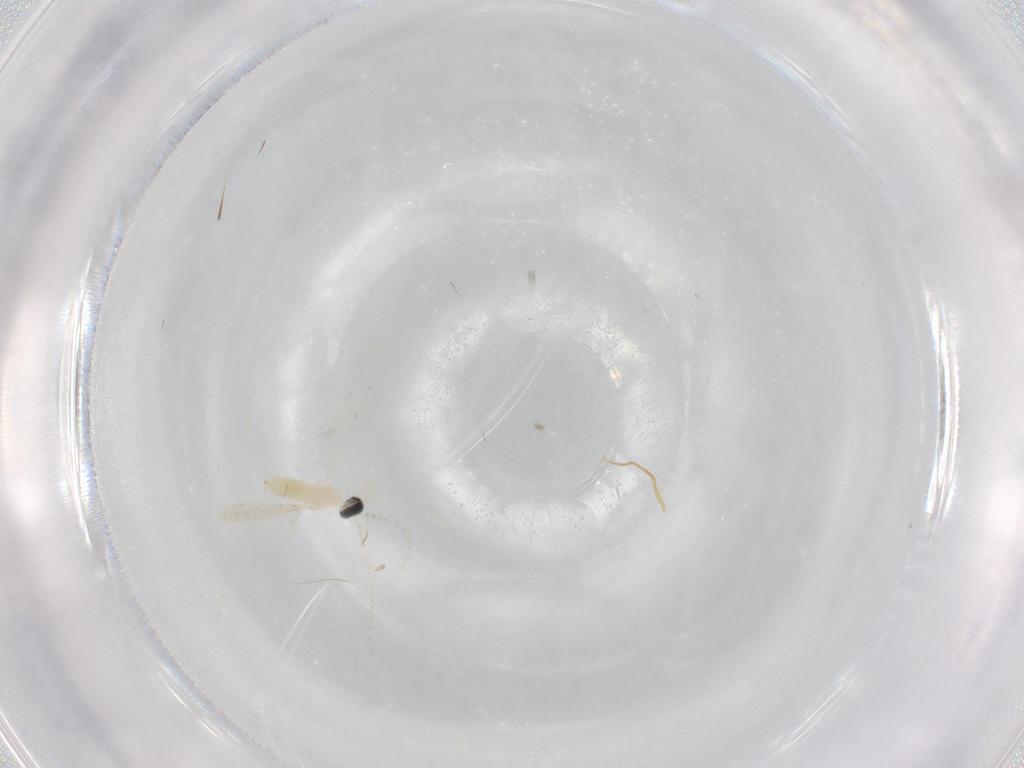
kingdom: Animalia
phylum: Arthropoda
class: Insecta
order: Diptera
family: Cecidomyiidae
